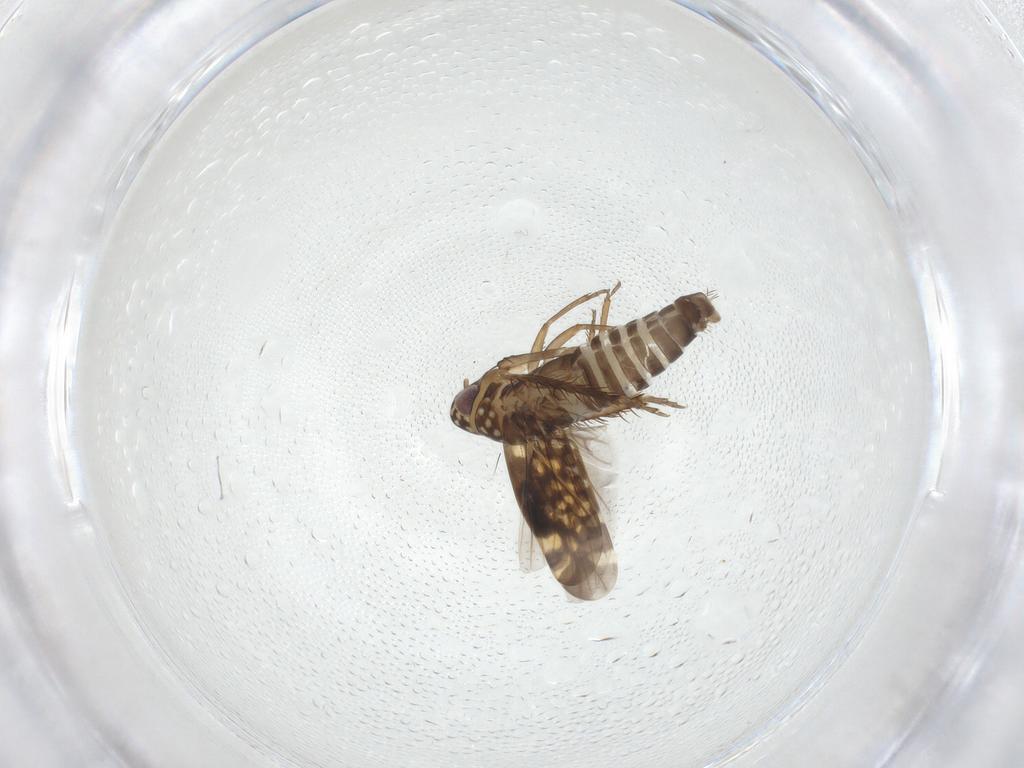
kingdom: Animalia
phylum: Arthropoda
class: Insecta
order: Hemiptera
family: Cicadellidae
